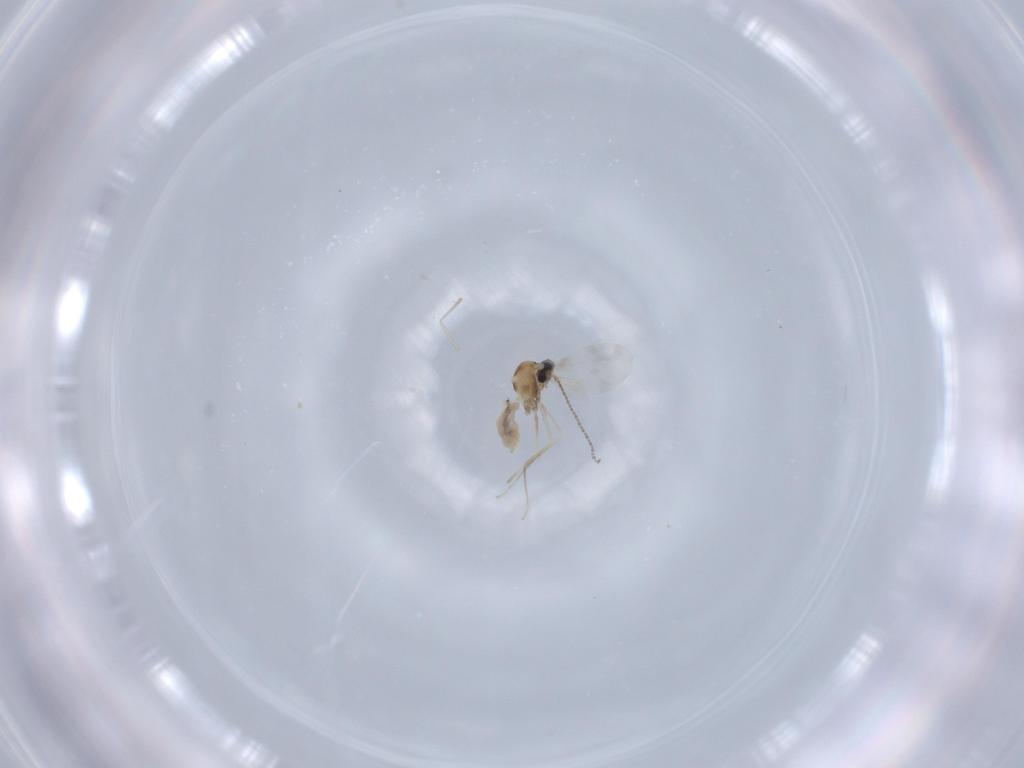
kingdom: Animalia
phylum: Arthropoda
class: Insecta
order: Diptera
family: Cecidomyiidae
